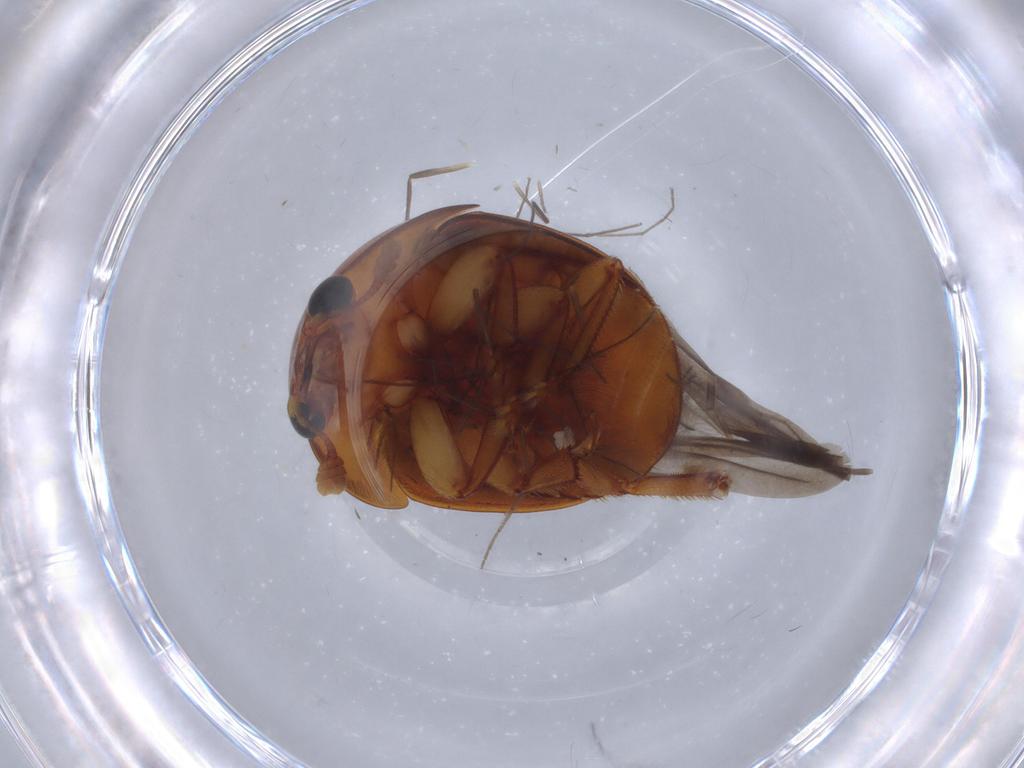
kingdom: Animalia
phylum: Arthropoda
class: Insecta
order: Coleoptera
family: Nitidulidae
